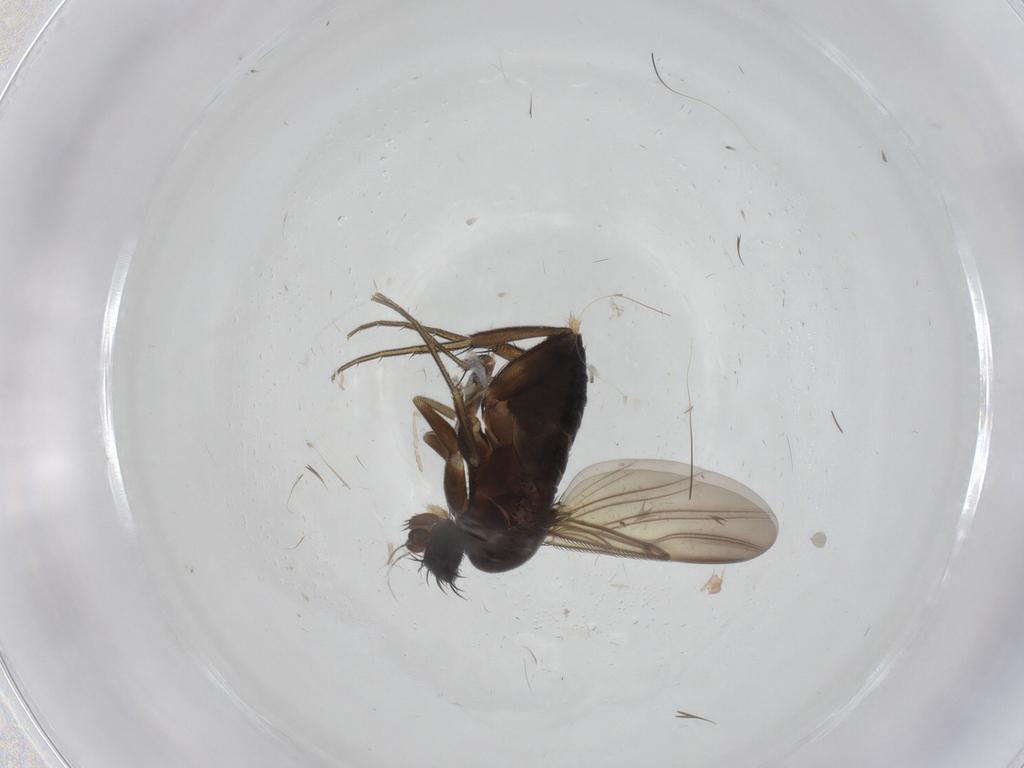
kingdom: Animalia
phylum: Arthropoda
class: Insecta
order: Diptera
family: Phoridae
